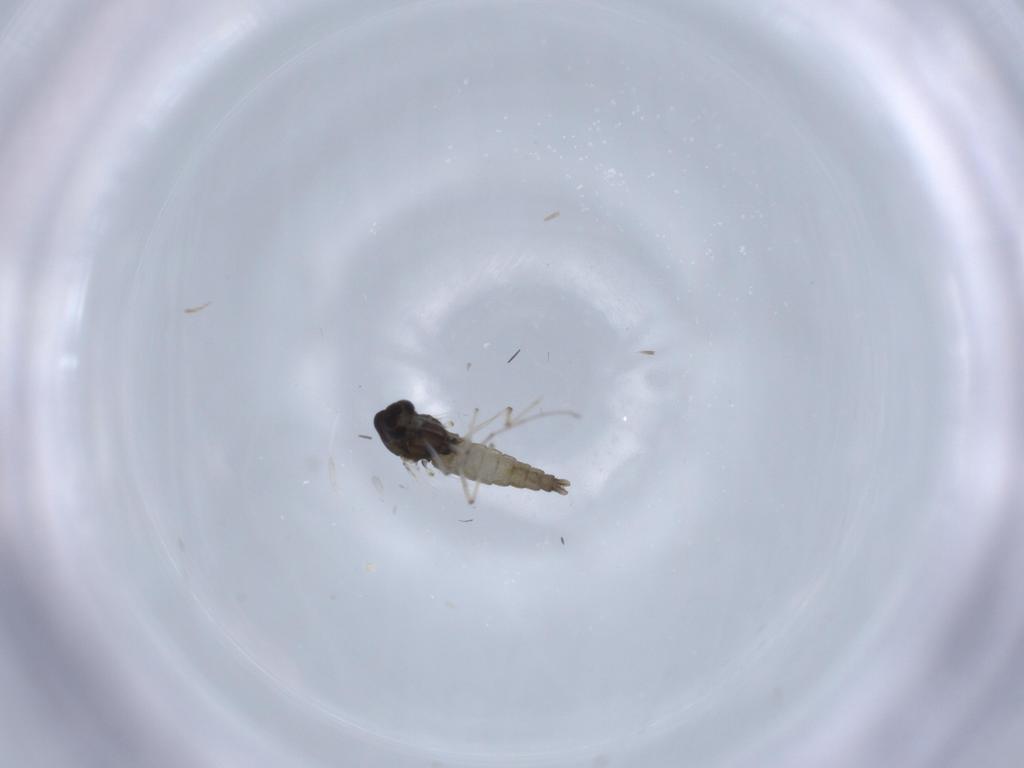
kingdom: Animalia
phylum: Arthropoda
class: Insecta
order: Diptera
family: Chironomidae
